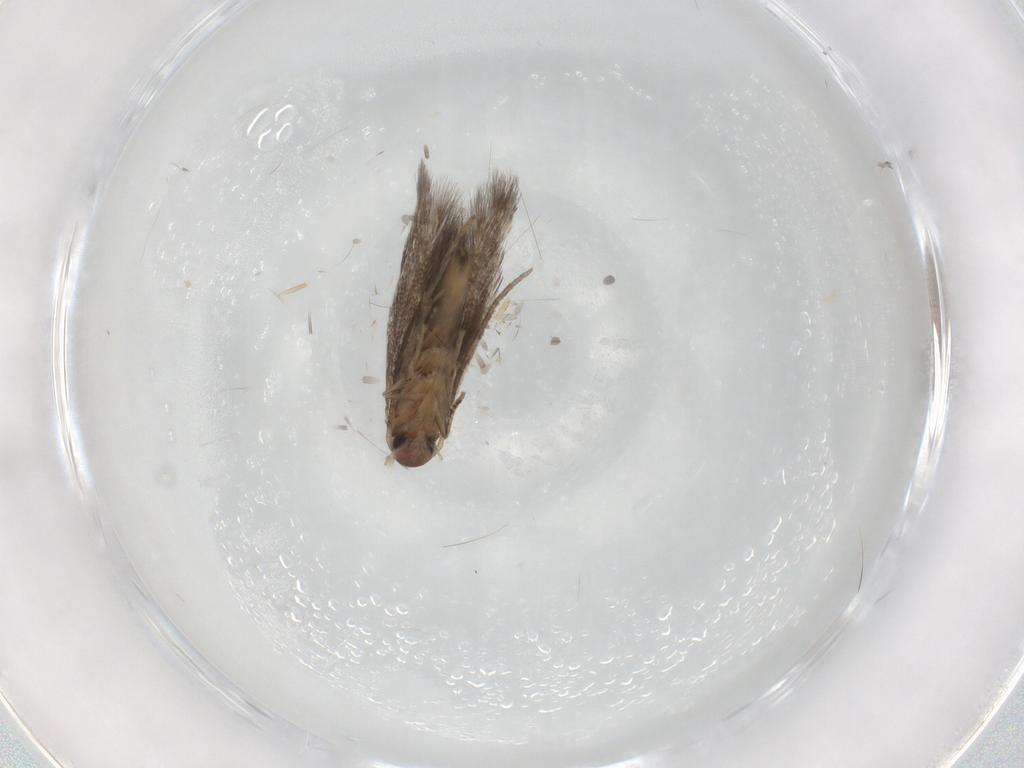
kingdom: Animalia
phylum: Arthropoda
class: Insecta
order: Lepidoptera
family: Elachistidae
